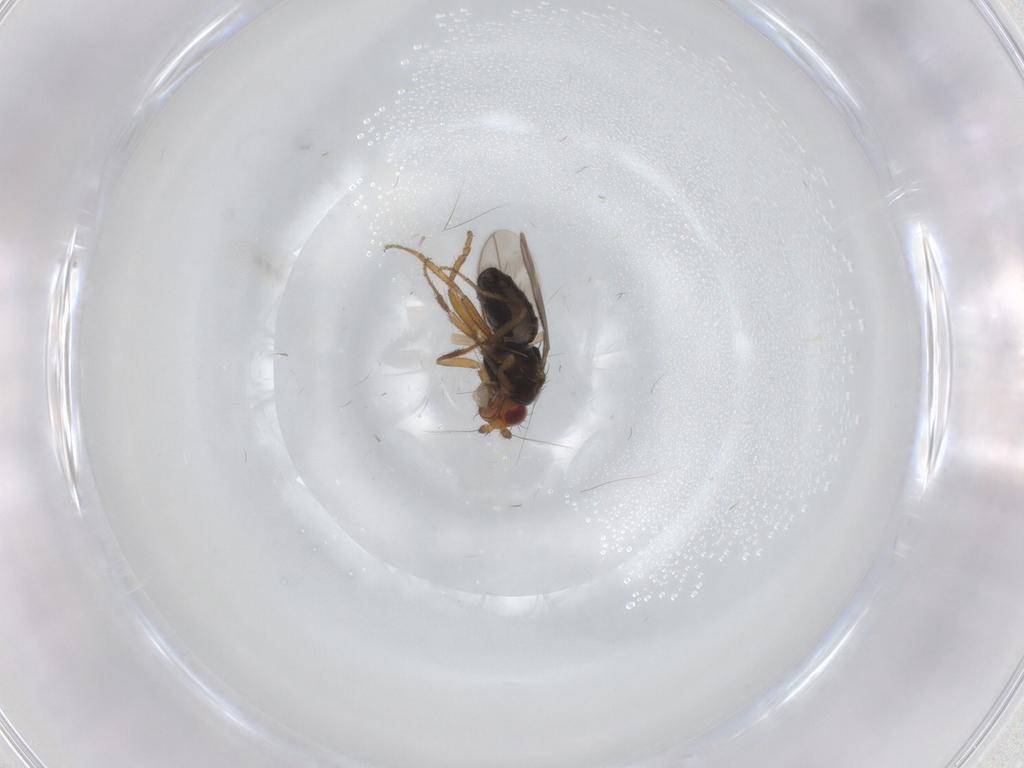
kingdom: Animalia
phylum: Arthropoda
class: Insecta
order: Diptera
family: Sphaeroceridae
